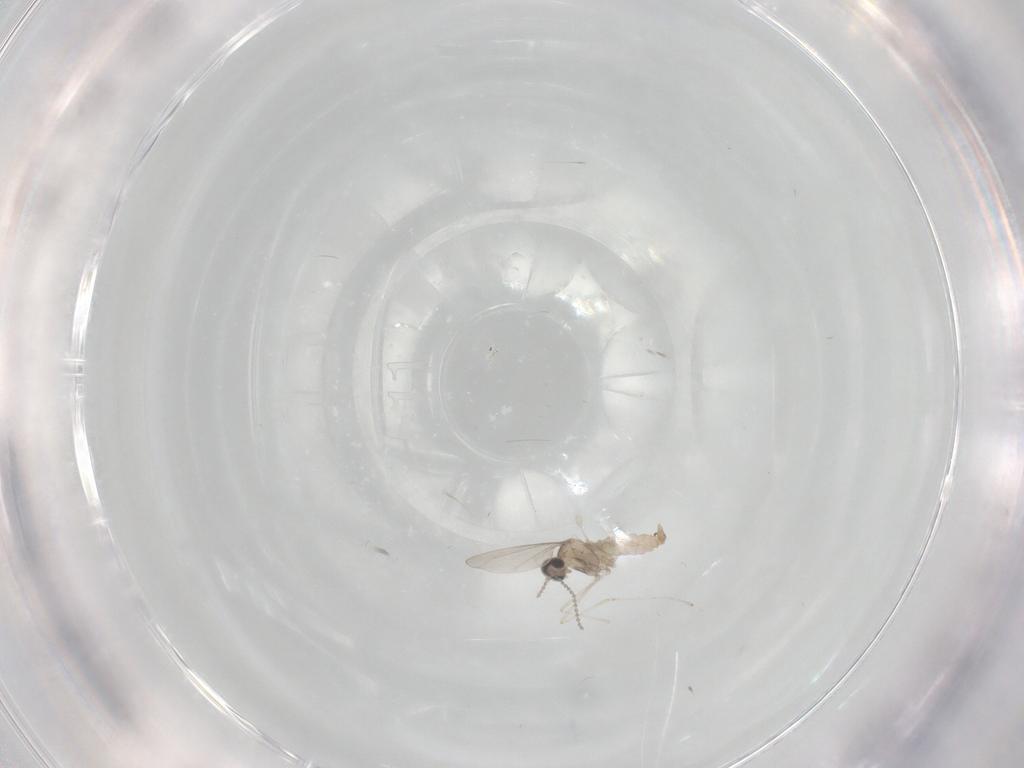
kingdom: Animalia
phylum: Arthropoda
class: Insecta
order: Diptera
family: Cecidomyiidae
